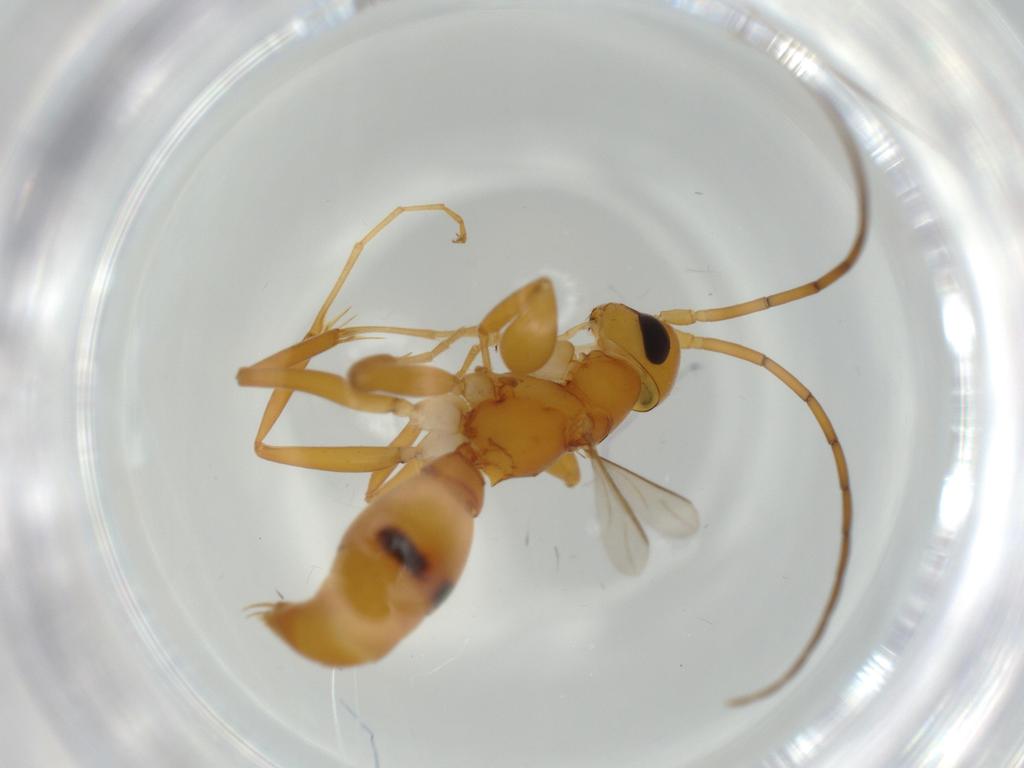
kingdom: Animalia
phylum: Arthropoda
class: Insecta
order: Hymenoptera
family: Rhopalosomatidae
